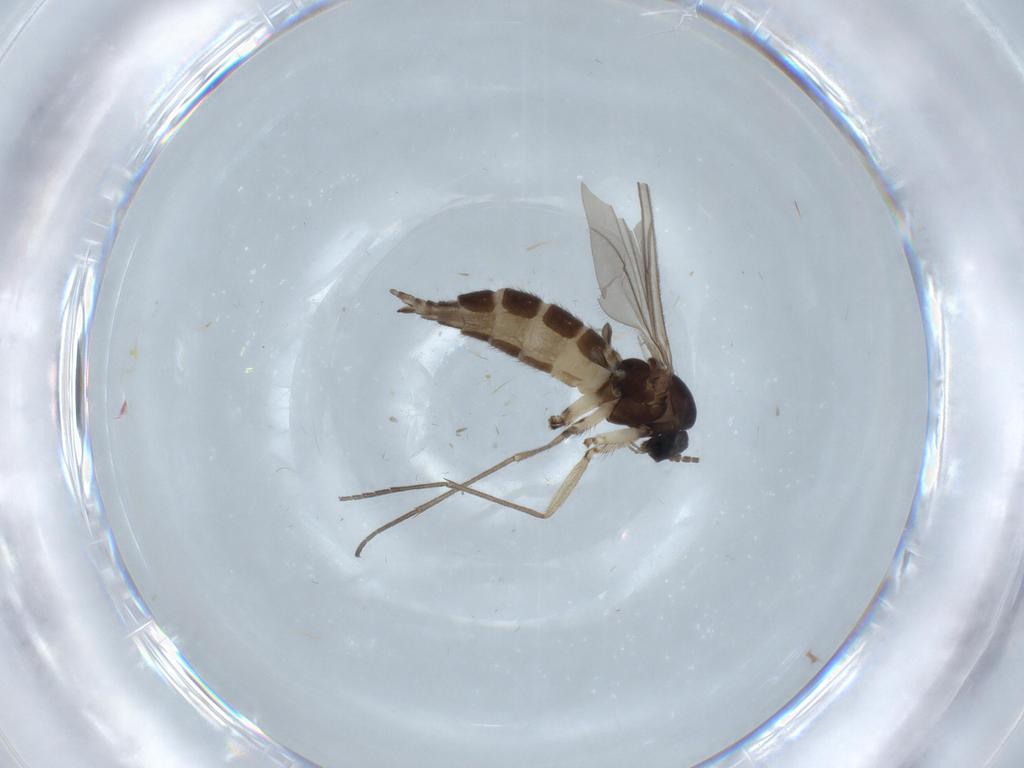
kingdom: Animalia
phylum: Arthropoda
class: Insecta
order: Diptera
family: Sciaridae
